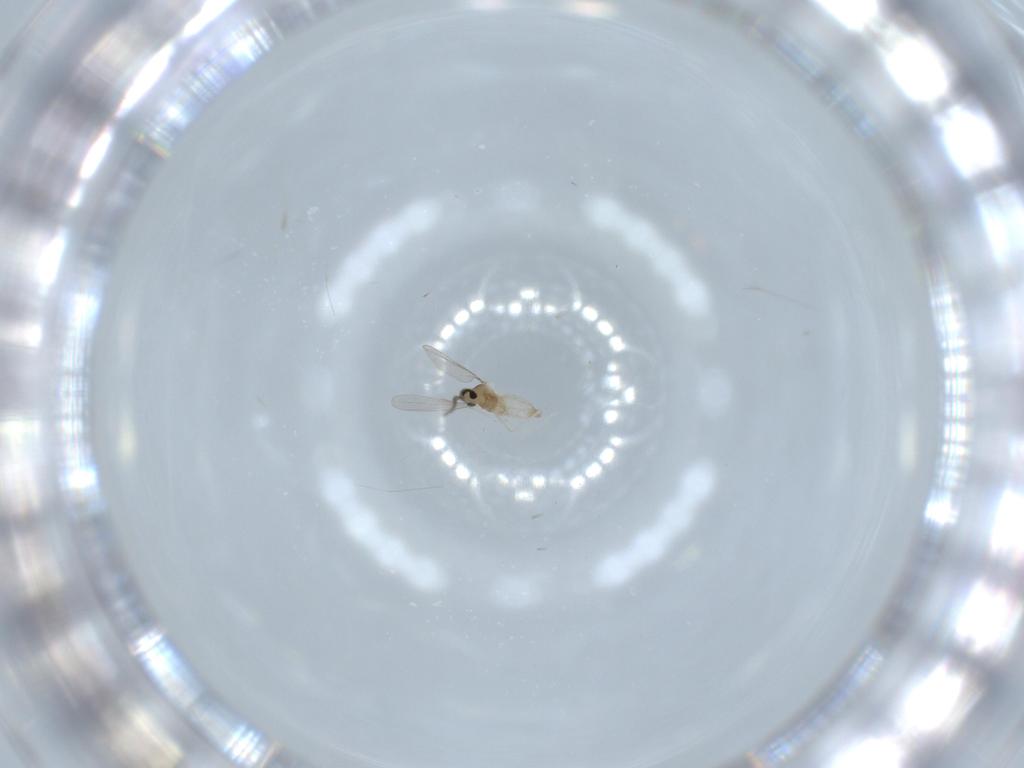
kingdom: Animalia
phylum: Arthropoda
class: Insecta
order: Diptera
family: Cecidomyiidae
